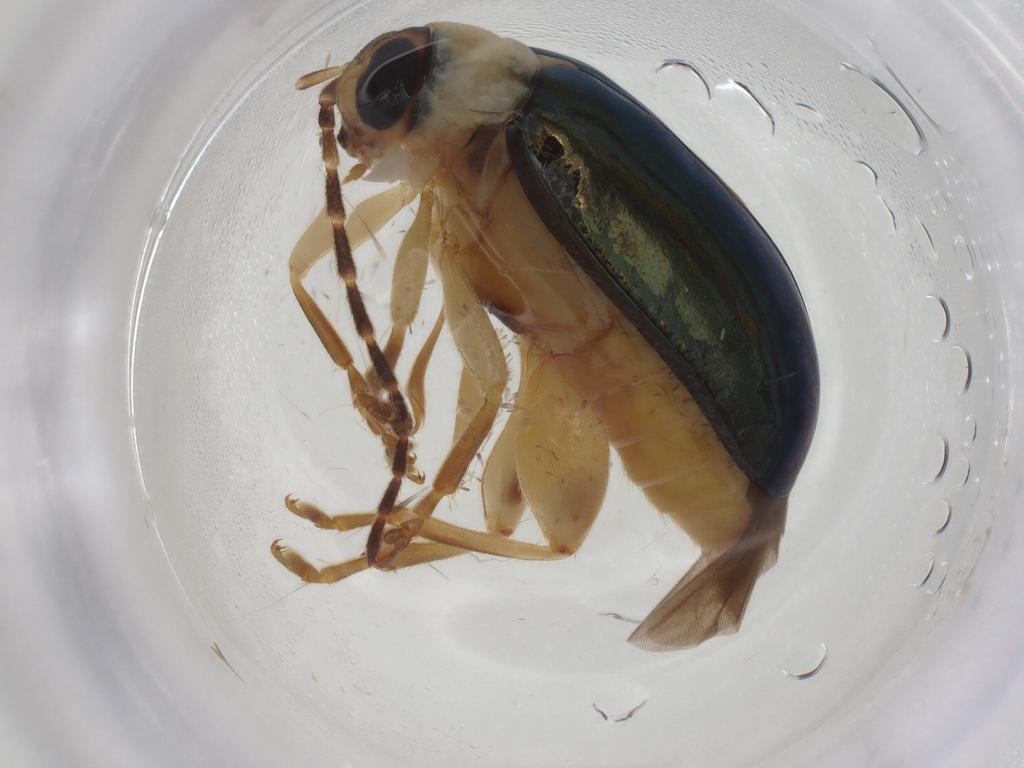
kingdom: Animalia
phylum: Arthropoda
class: Insecta
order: Coleoptera
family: Chrysomelidae
